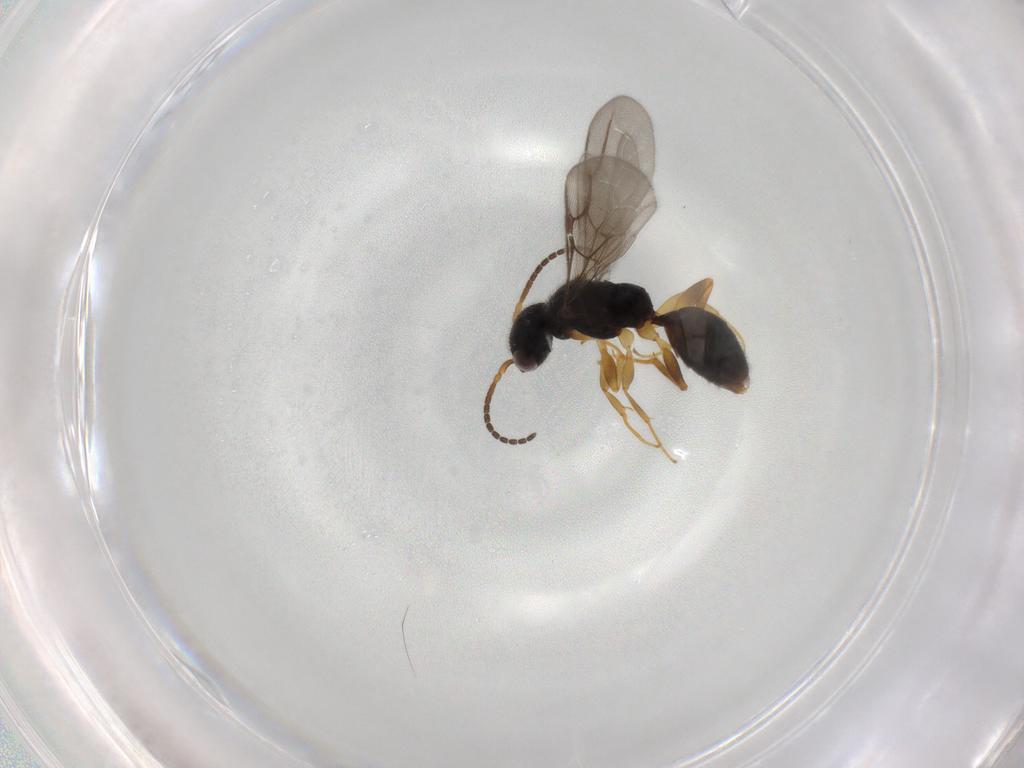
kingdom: Animalia
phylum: Arthropoda
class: Insecta
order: Hymenoptera
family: Bethylidae
